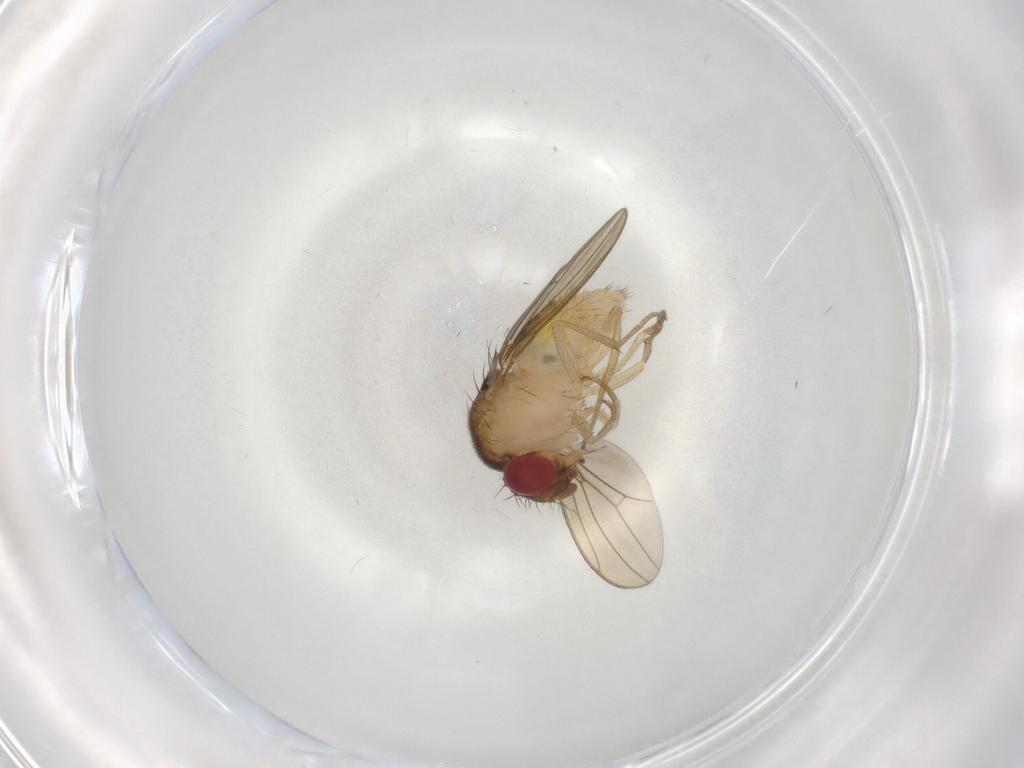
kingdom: Animalia
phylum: Arthropoda
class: Insecta
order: Diptera
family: Drosophilidae
